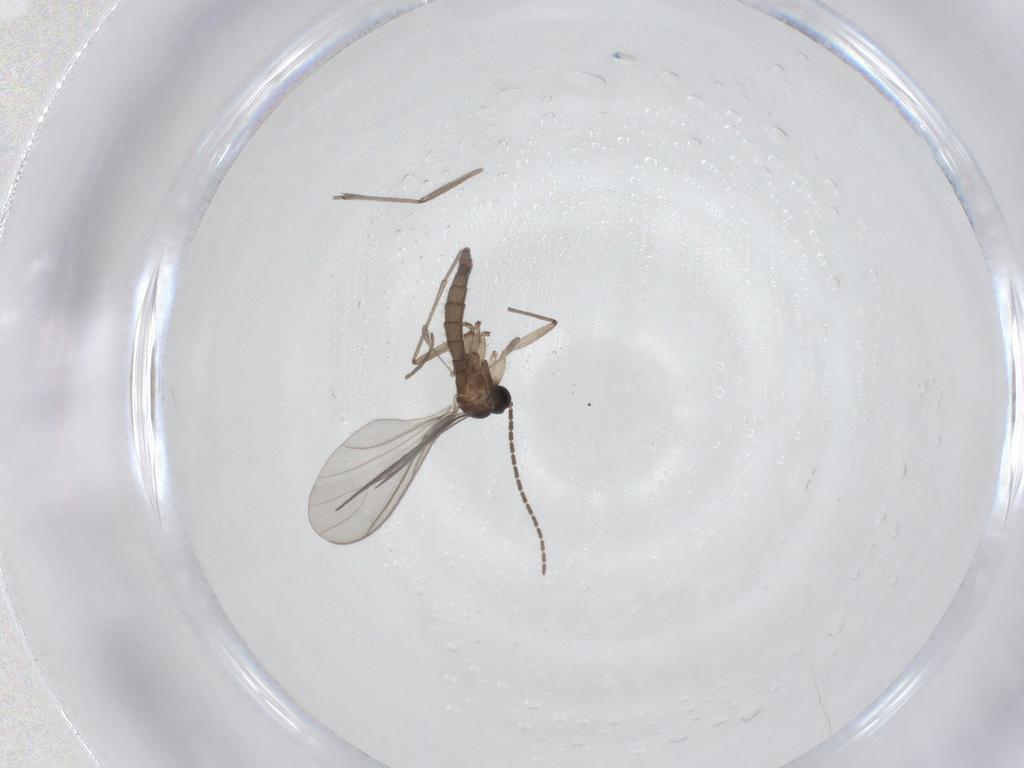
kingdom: Animalia
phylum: Arthropoda
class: Insecta
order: Diptera
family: Sciaridae
